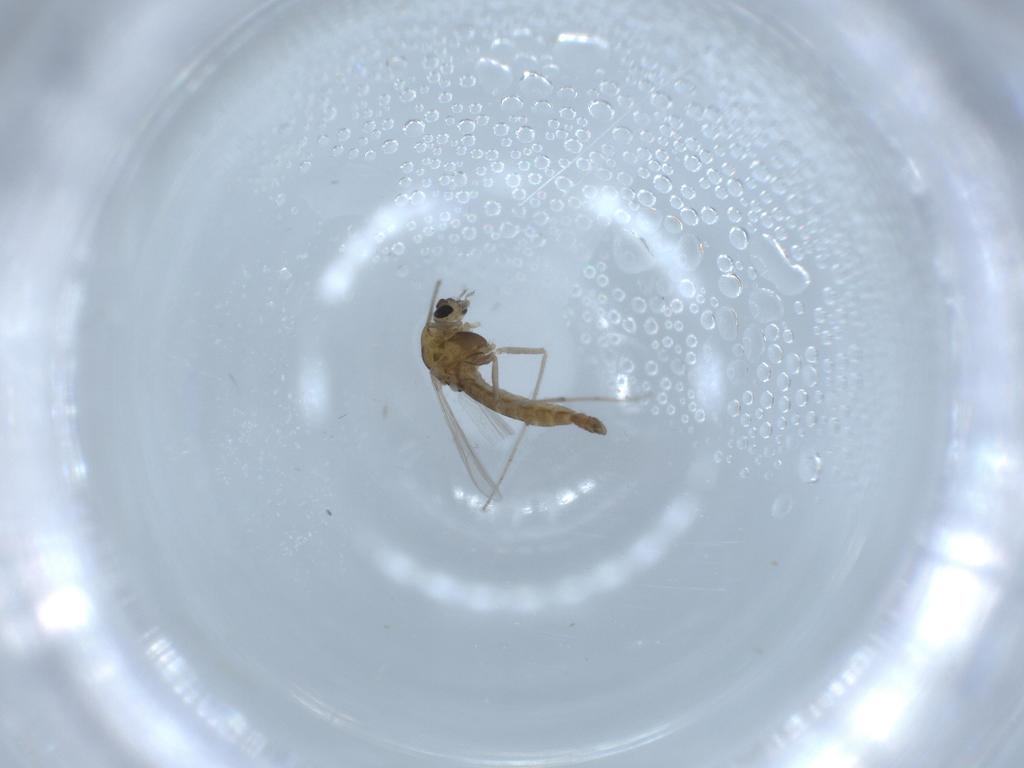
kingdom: Animalia
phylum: Arthropoda
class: Insecta
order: Diptera
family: Chironomidae
